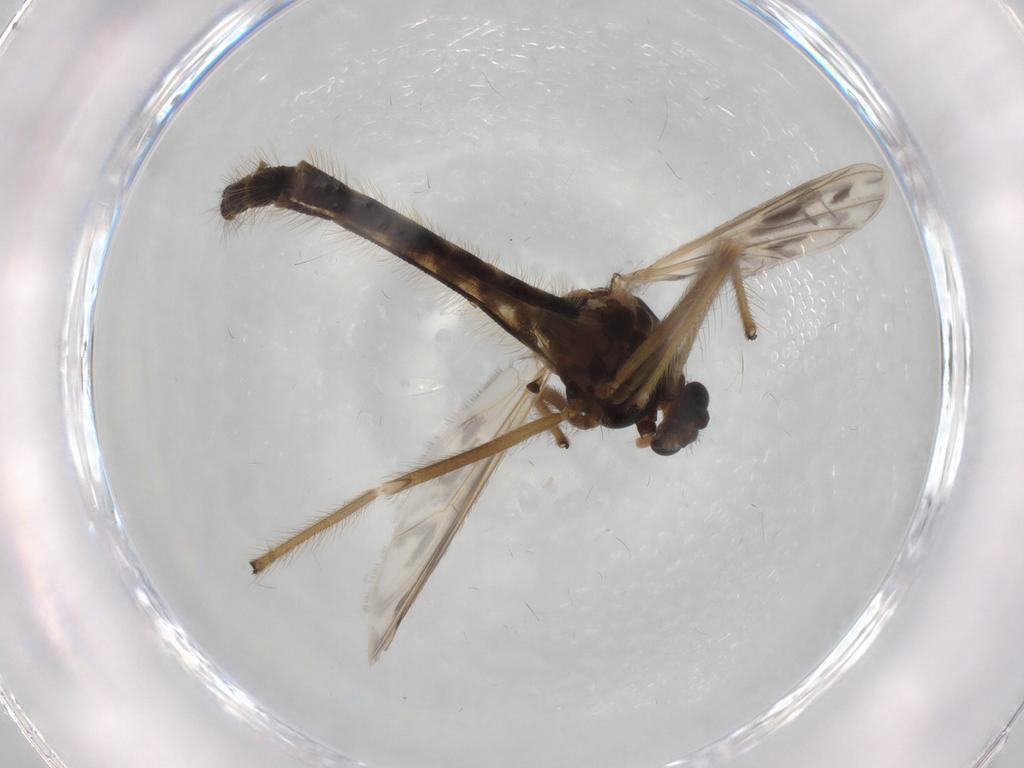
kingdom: Animalia
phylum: Arthropoda
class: Insecta
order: Diptera
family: Chironomidae
